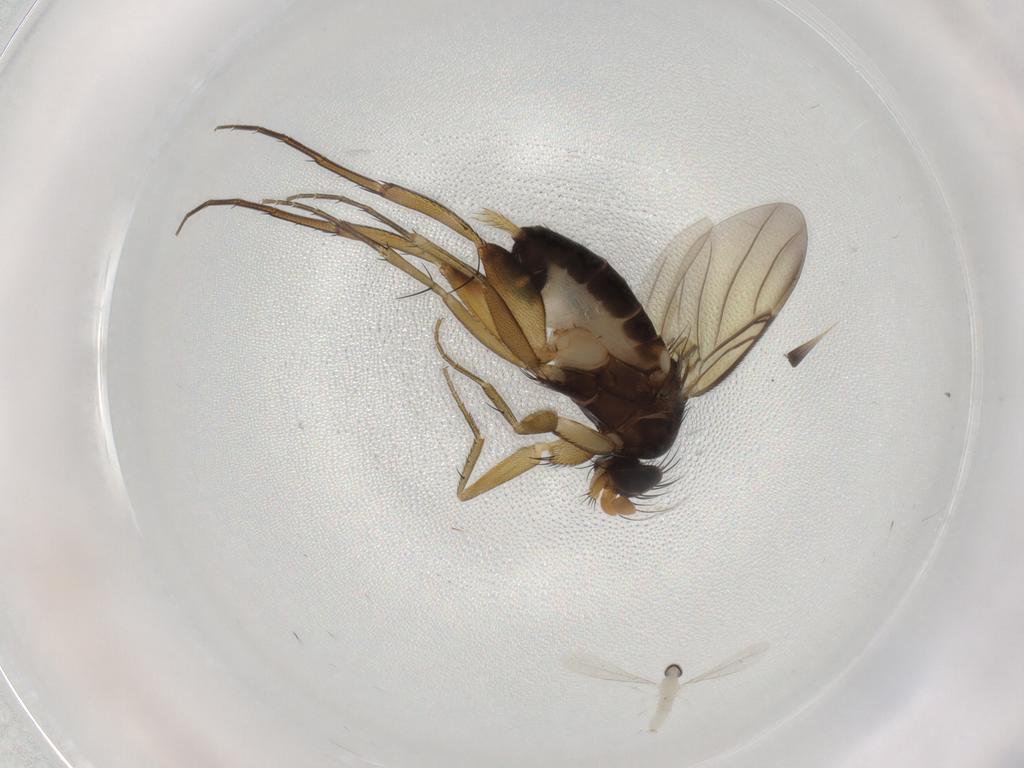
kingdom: Animalia
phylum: Arthropoda
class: Insecta
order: Diptera
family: Phoridae
